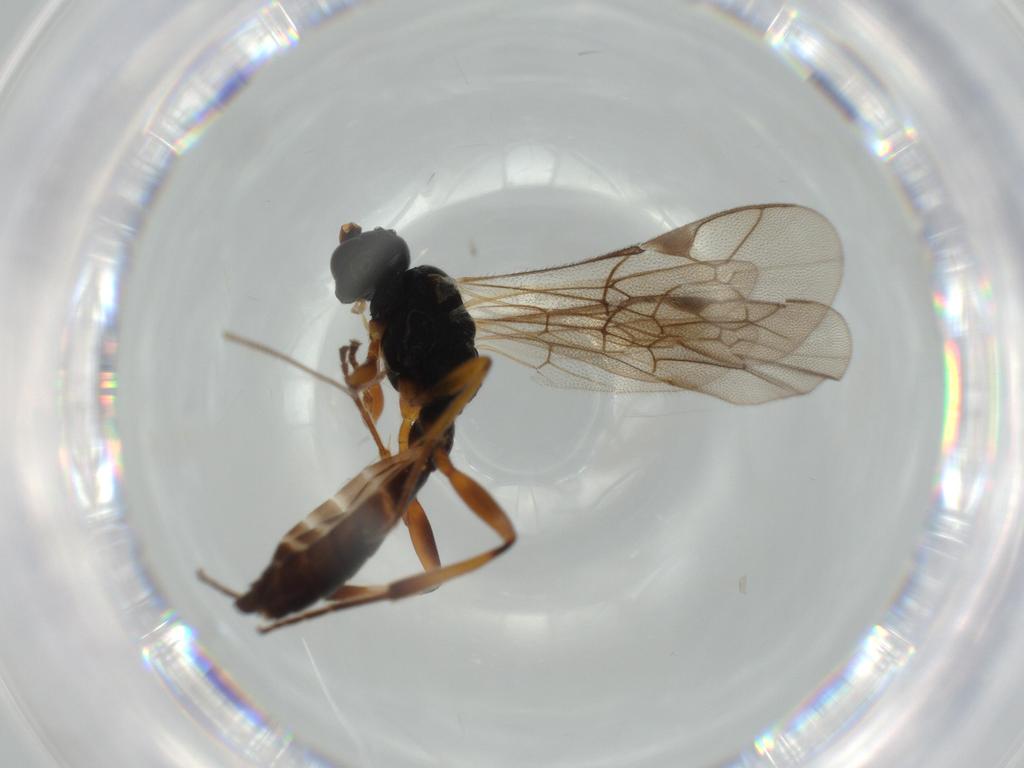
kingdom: Animalia
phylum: Arthropoda
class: Insecta
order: Hymenoptera
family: Ichneumonidae
